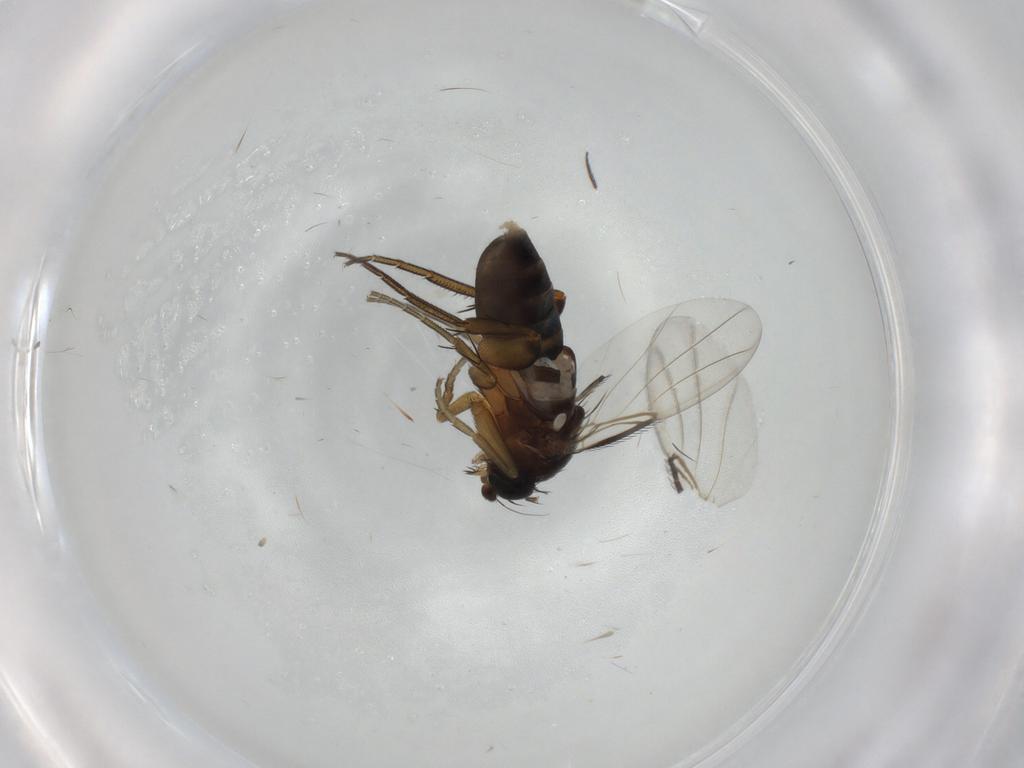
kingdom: Animalia
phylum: Arthropoda
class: Insecta
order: Diptera
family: Phoridae
